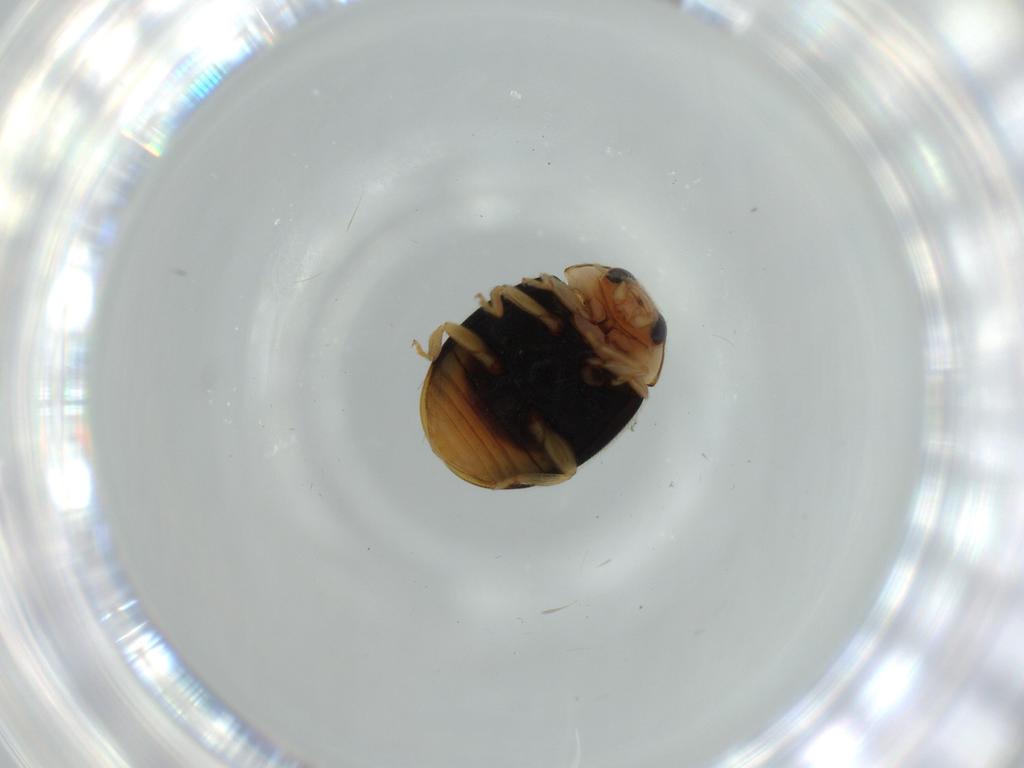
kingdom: Animalia
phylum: Arthropoda
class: Insecta
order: Coleoptera
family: Coccinellidae
